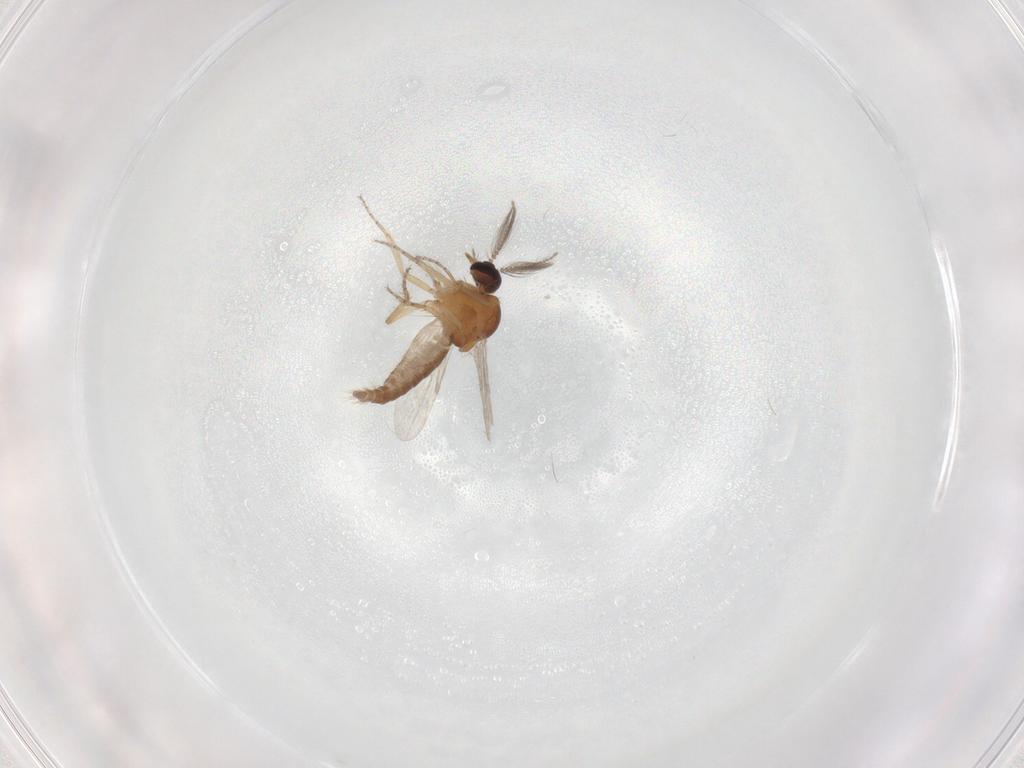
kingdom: Animalia
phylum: Arthropoda
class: Insecta
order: Diptera
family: Ceratopogonidae
